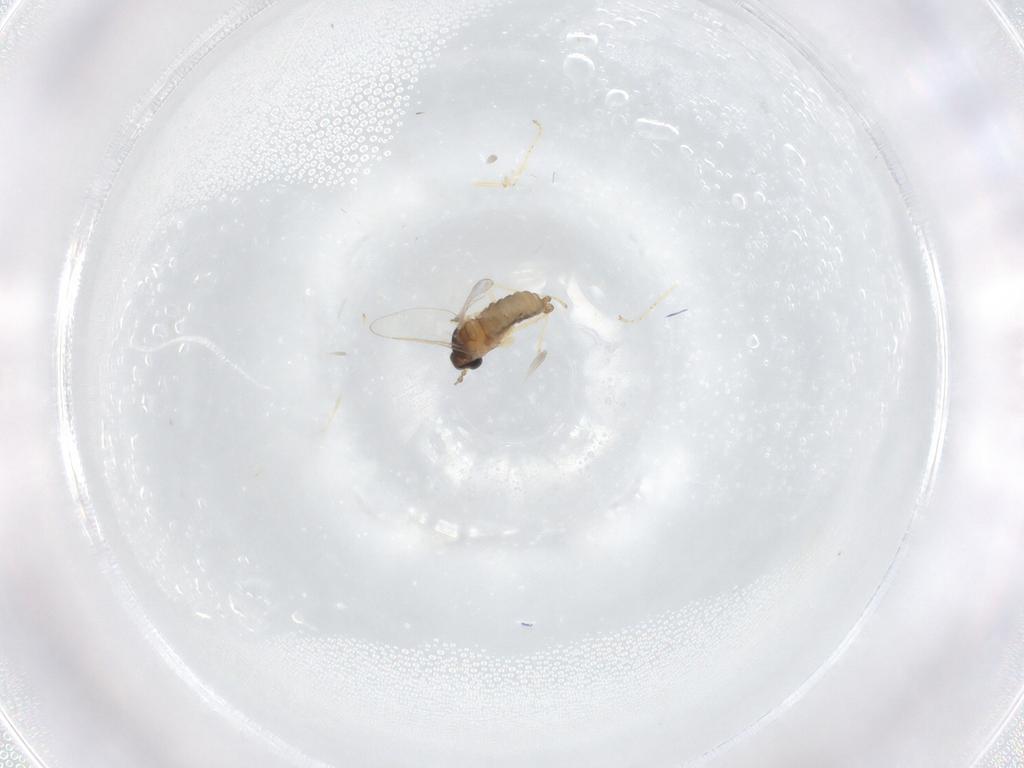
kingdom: Animalia
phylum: Arthropoda
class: Insecta
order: Diptera
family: Cecidomyiidae
